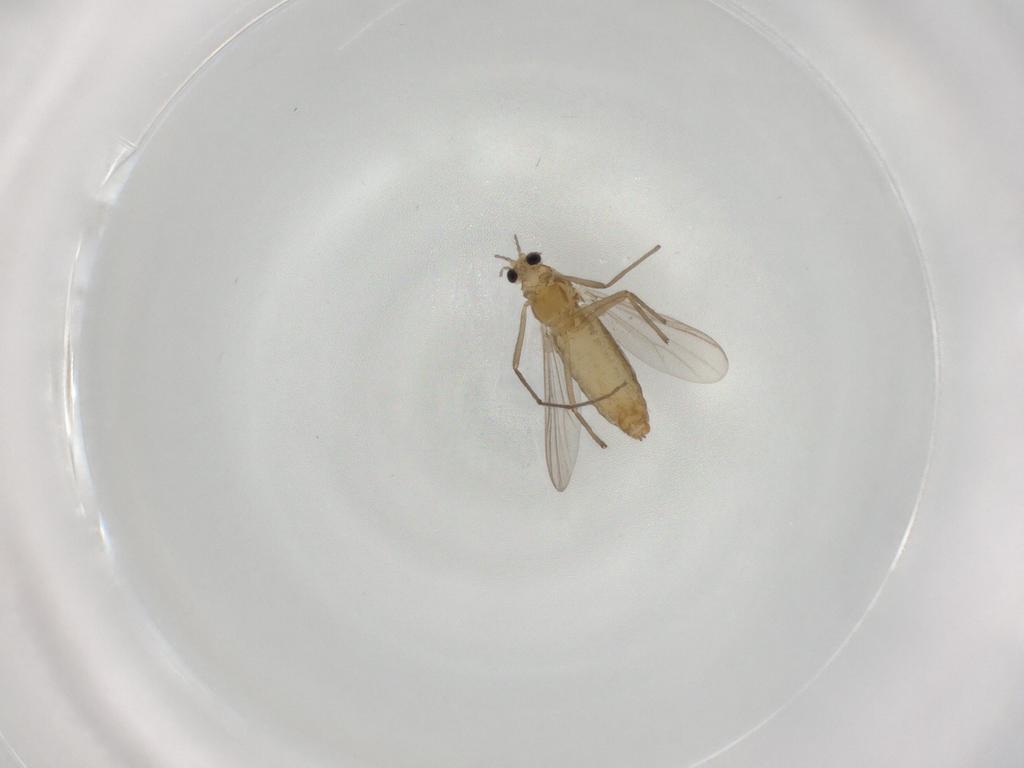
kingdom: Animalia
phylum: Arthropoda
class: Insecta
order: Diptera
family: Chironomidae
